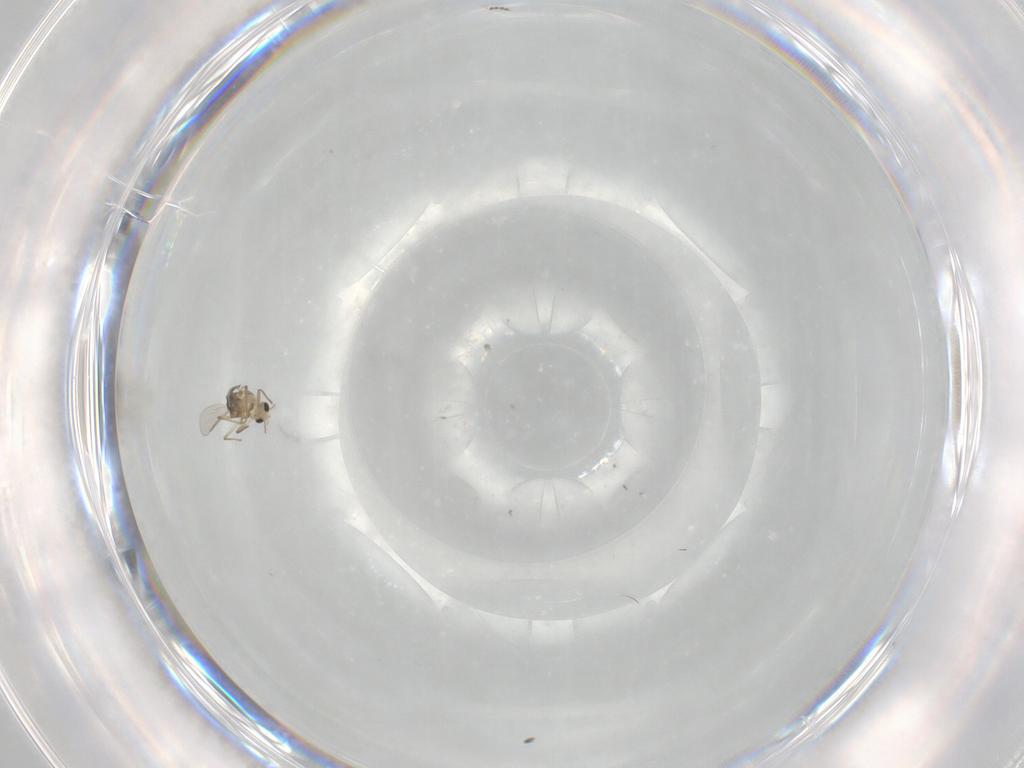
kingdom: Animalia
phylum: Arthropoda
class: Insecta
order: Diptera
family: Chironomidae
